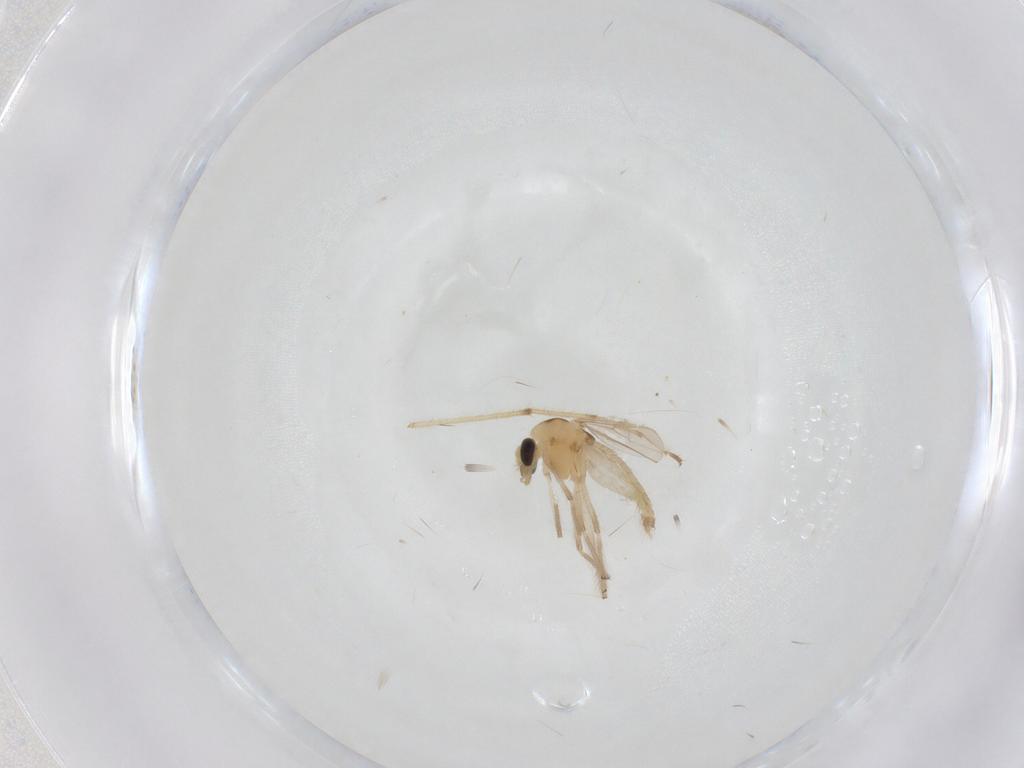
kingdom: Animalia
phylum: Arthropoda
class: Insecta
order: Diptera
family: Chironomidae
